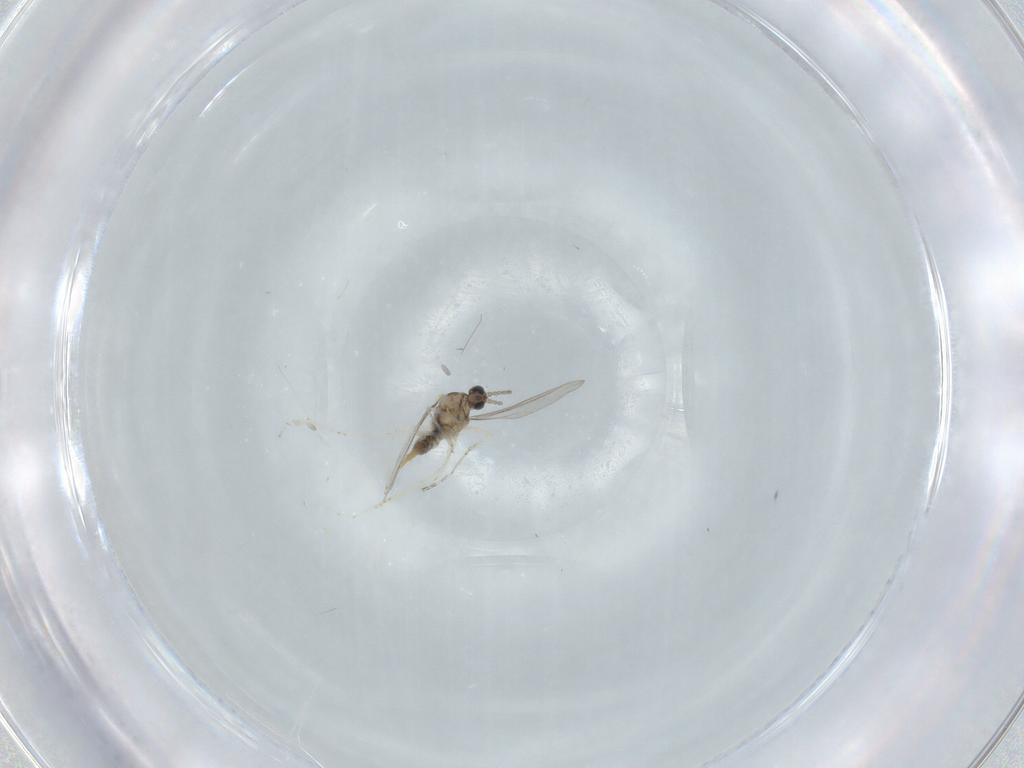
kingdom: Animalia
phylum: Arthropoda
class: Insecta
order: Diptera
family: Cecidomyiidae
